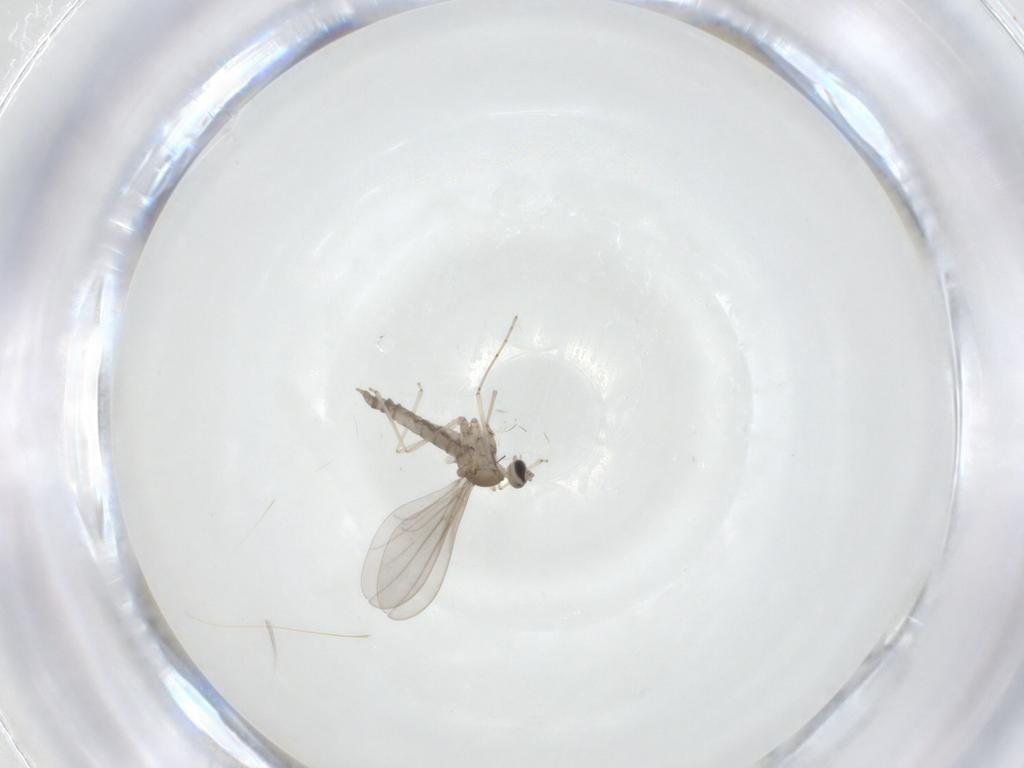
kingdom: Animalia
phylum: Arthropoda
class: Insecta
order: Diptera
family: Cecidomyiidae
